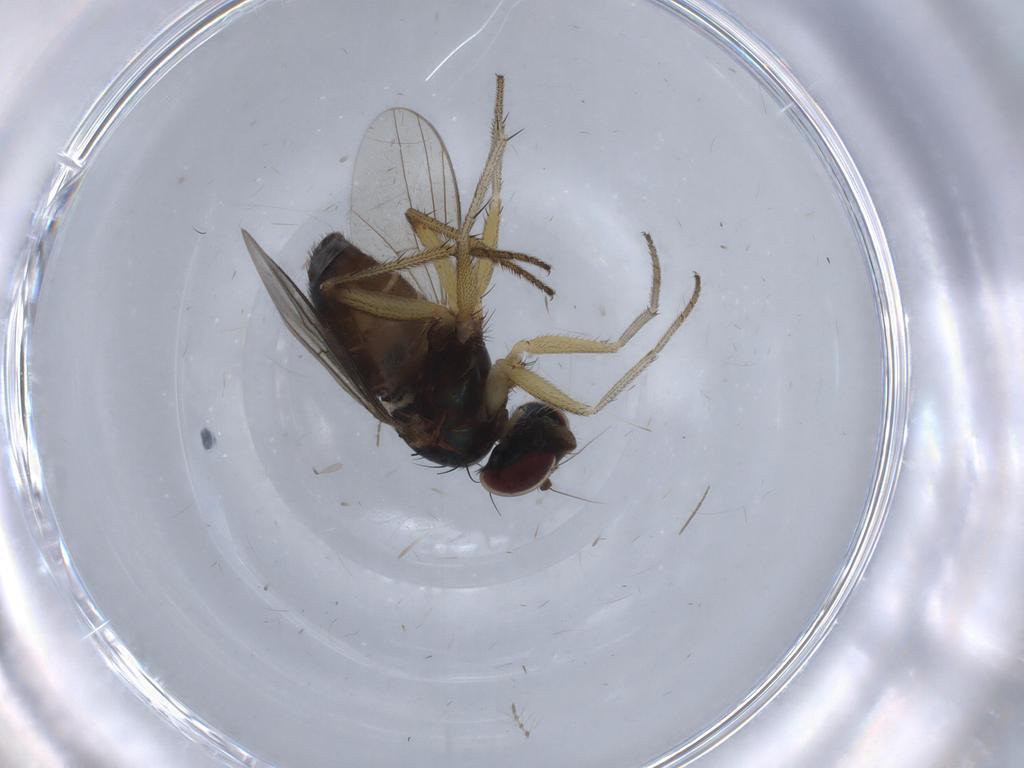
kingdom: Animalia
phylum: Arthropoda
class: Insecta
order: Diptera
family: Chironomidae
